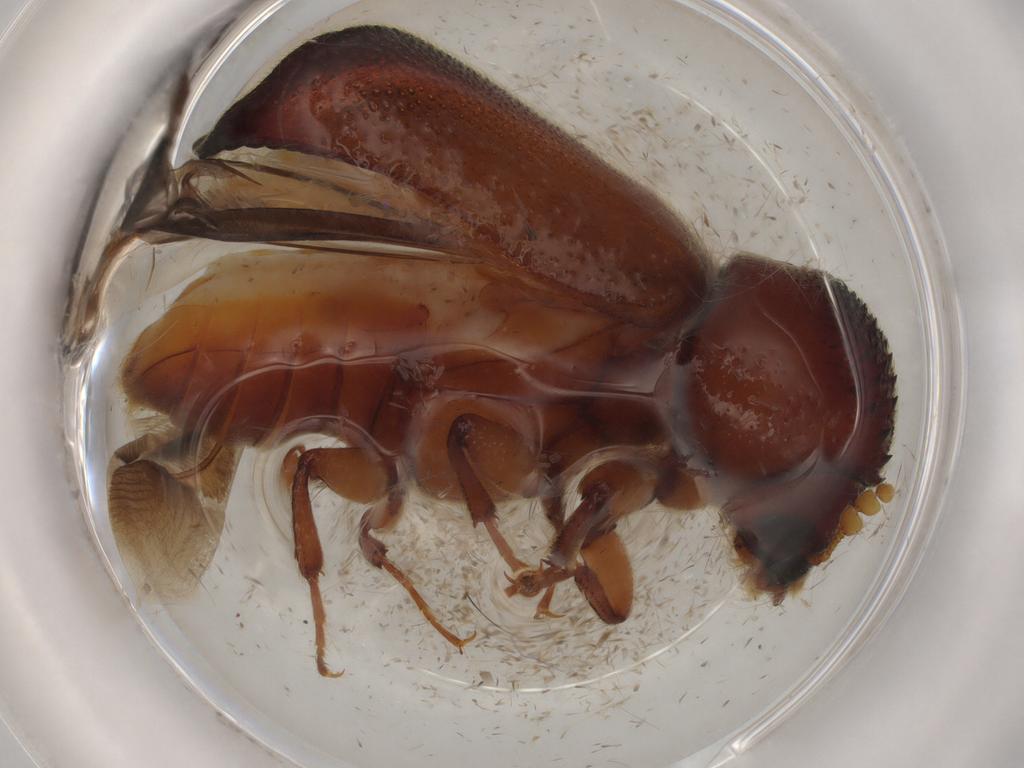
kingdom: Animalia
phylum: Arthropoda
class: Insecta
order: Coleoptera
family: Bostrichidae
